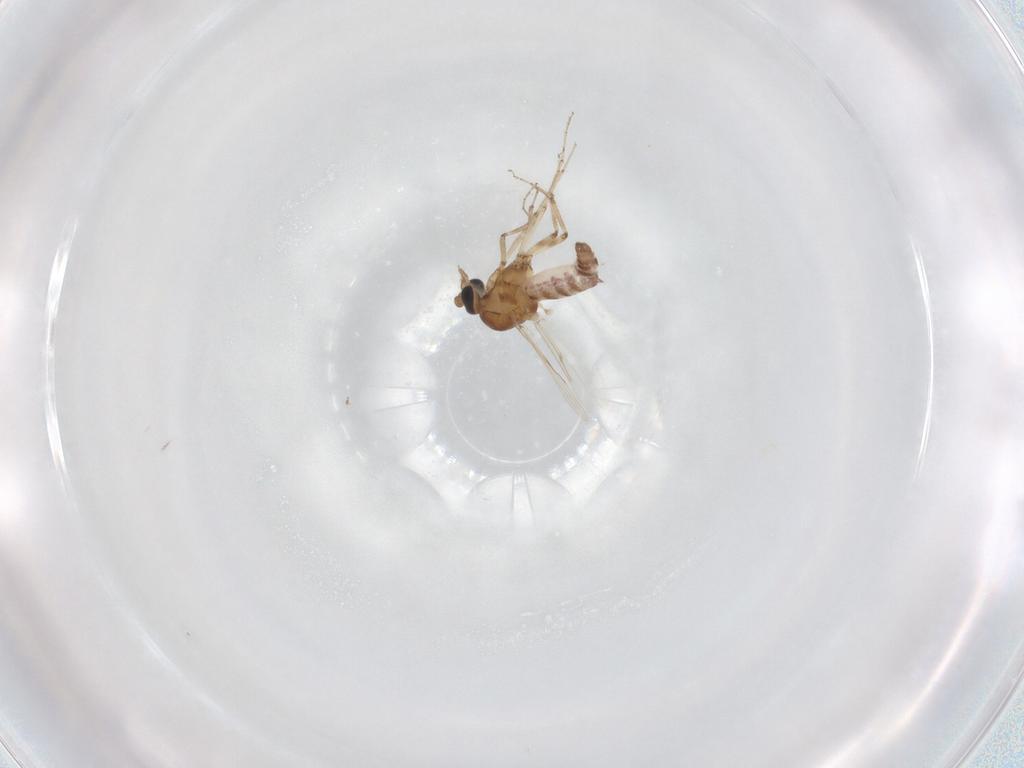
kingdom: Animalia
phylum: Arthropoda
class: Insecta
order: Diptera
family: Ceratopogonidae
